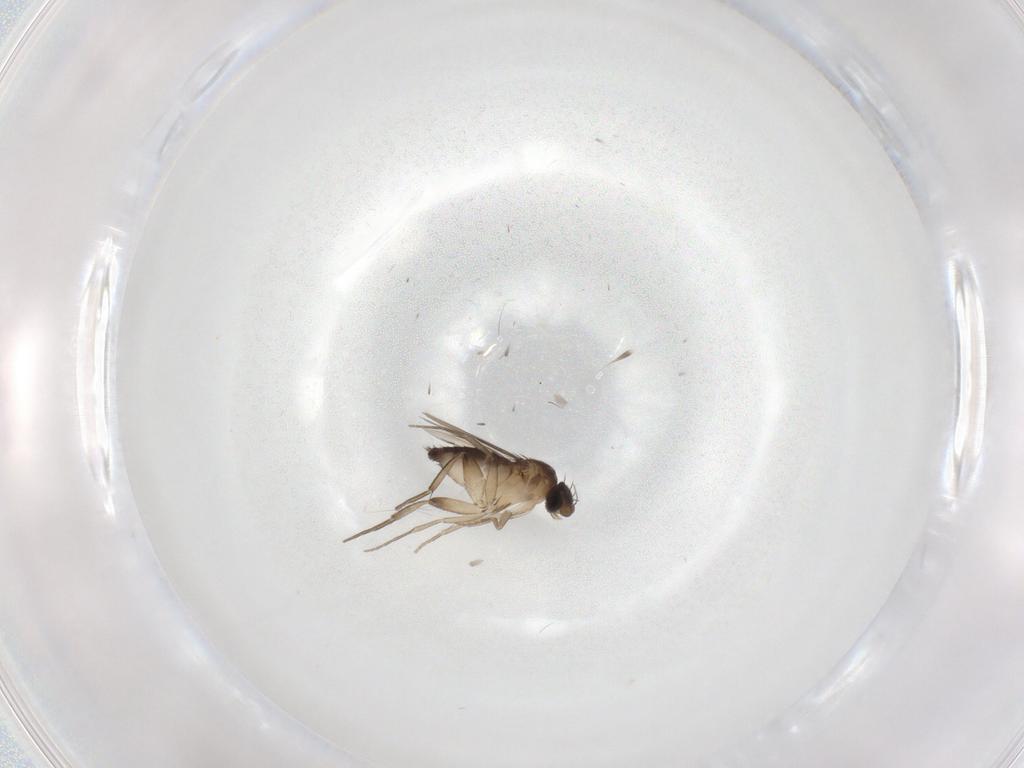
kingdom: Animalia
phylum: Arthropoda
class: Insecta
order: Diptera
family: Phoridae
